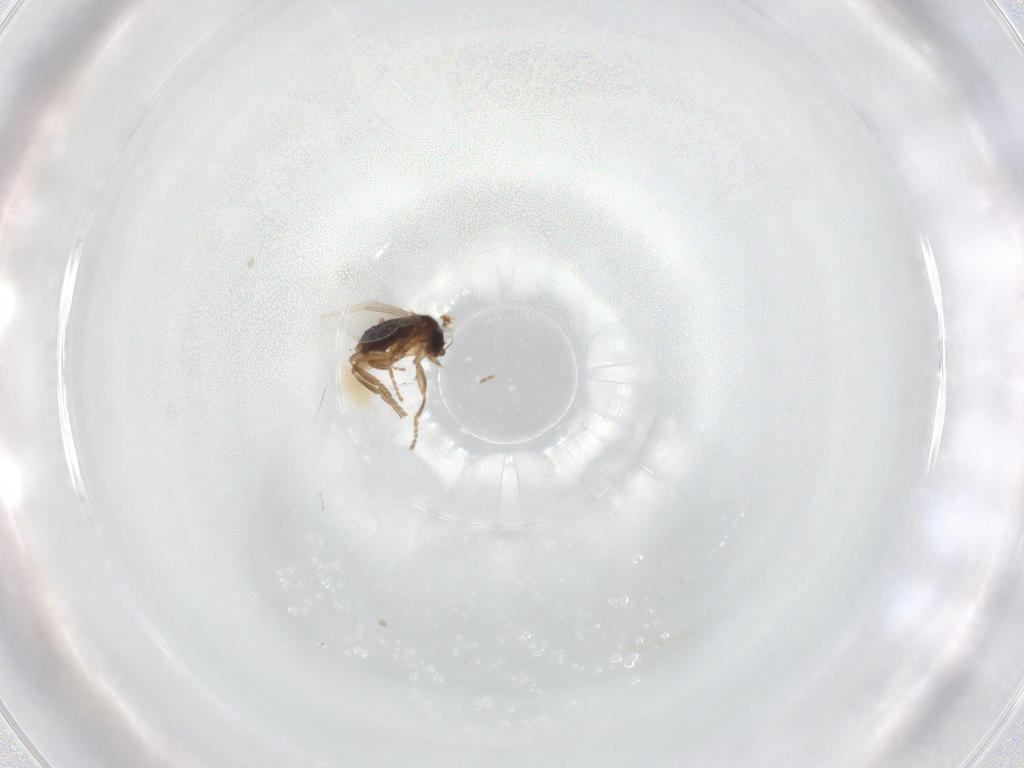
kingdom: Animalia
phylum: Arthropoda
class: Insecta
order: Diptera
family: Phoridae
